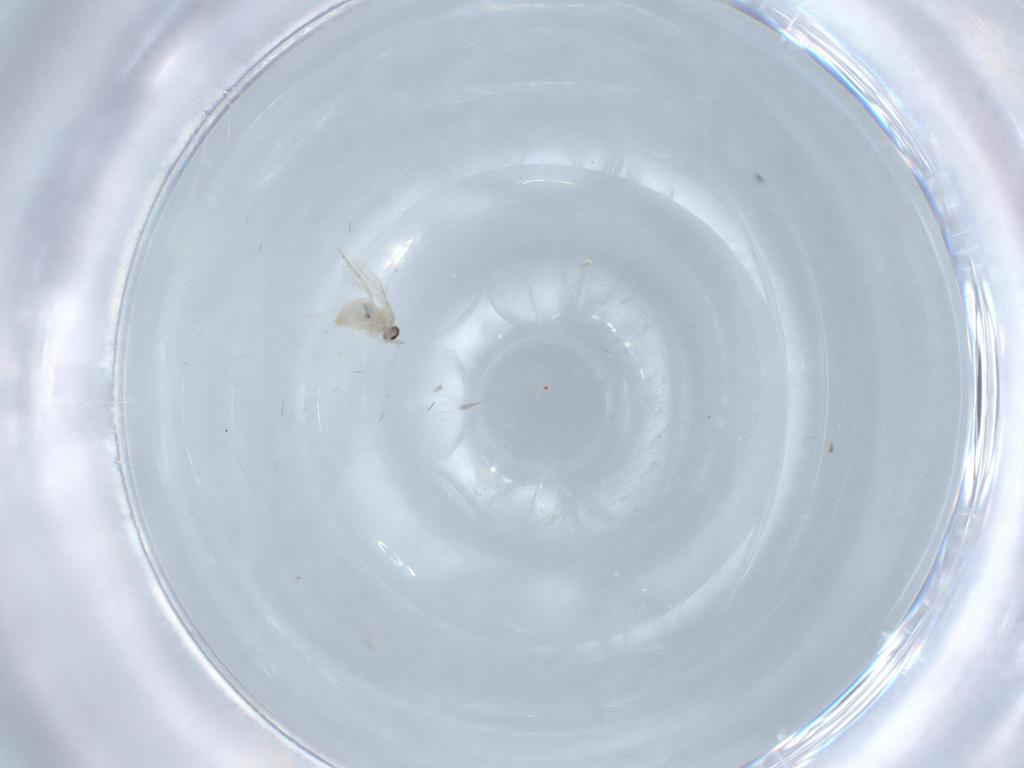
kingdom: Animalia
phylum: Arthropoda
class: Insecta
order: Diptera
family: Cecidomyiidae
